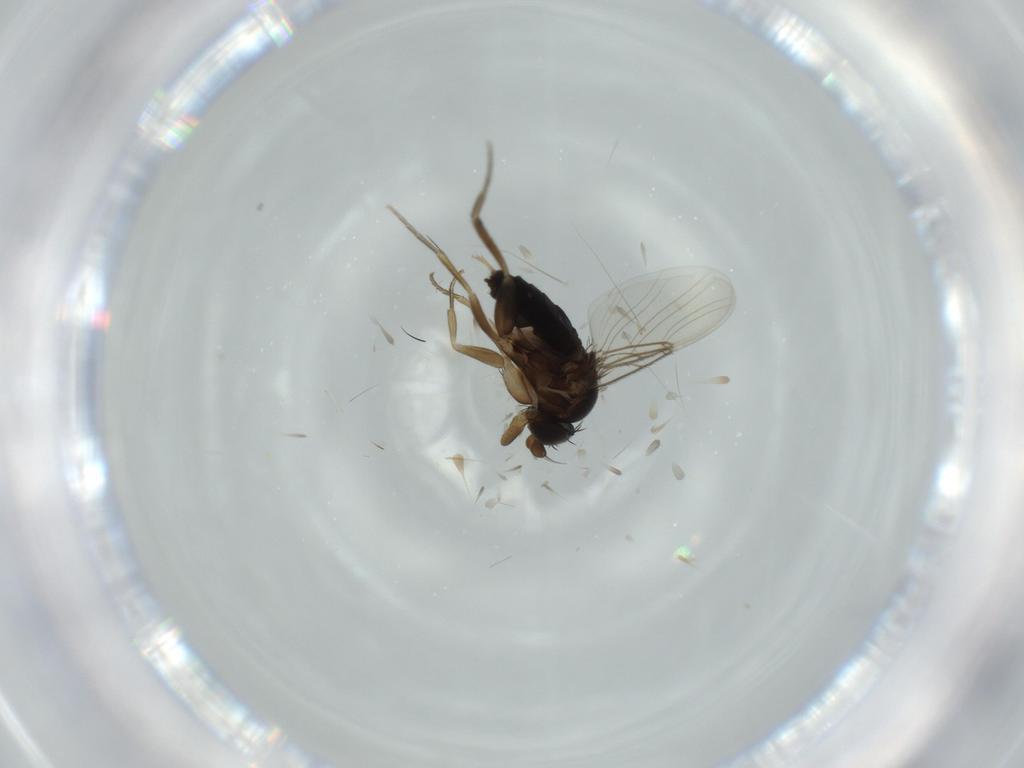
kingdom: Animalia
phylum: Arthropoda
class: Insecta
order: Diptera
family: Phoridae
